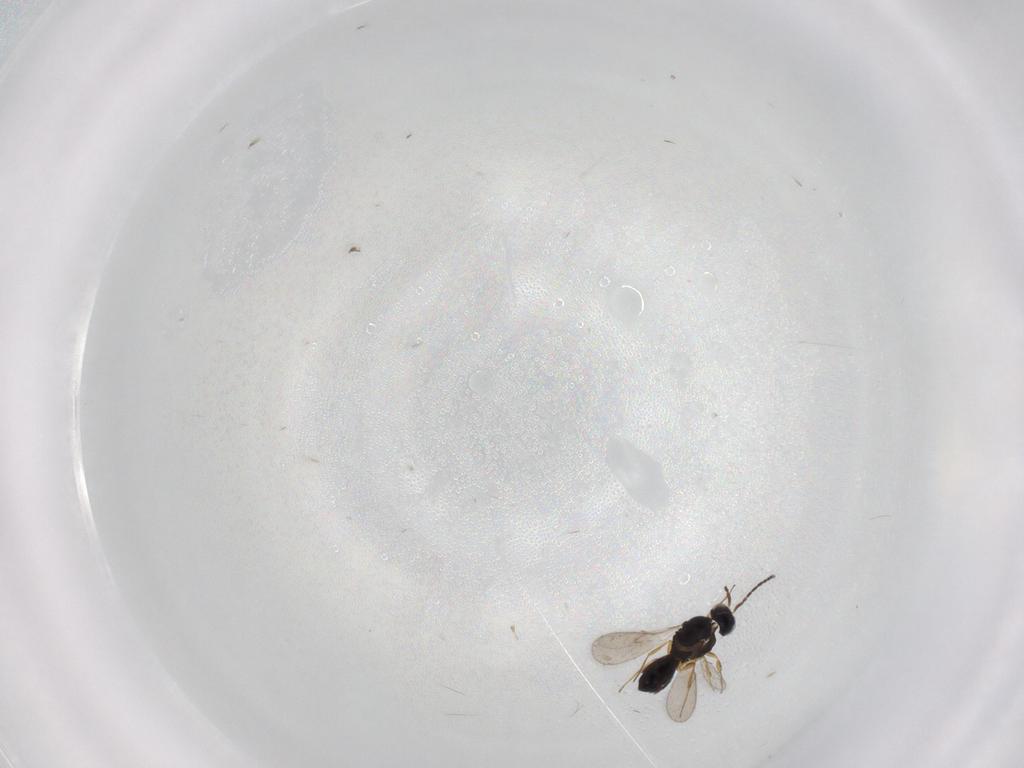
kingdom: Animalia
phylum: Arthropoda
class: Insecta
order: Hymenoptera
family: Scelionidae
